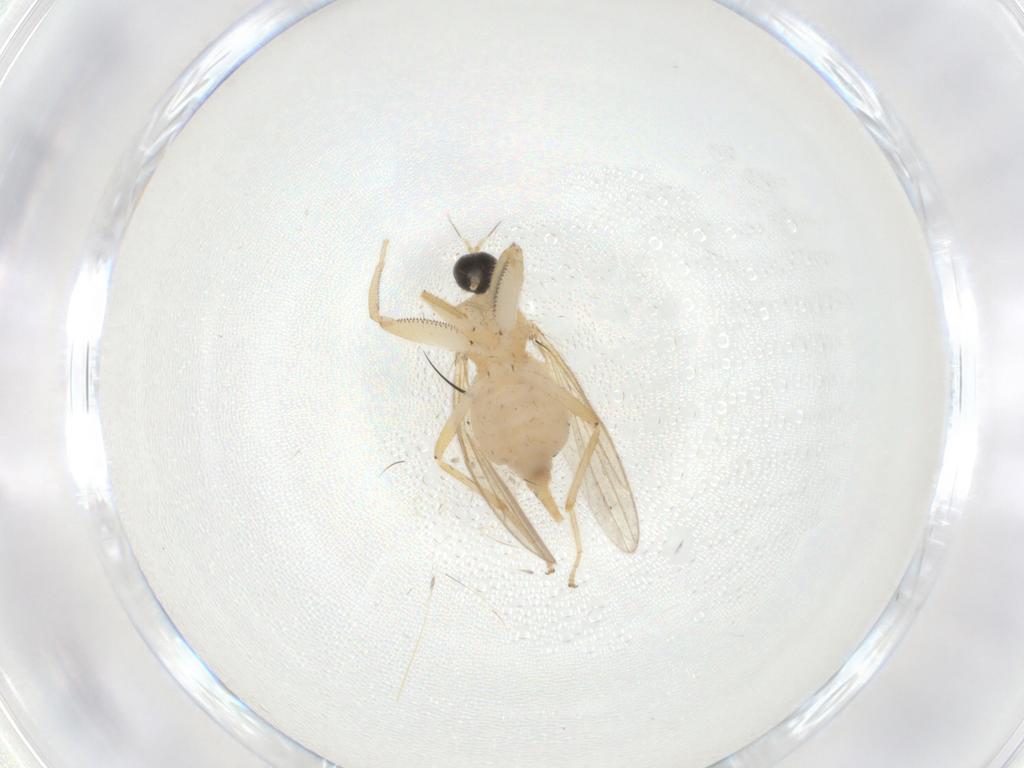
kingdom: Animalia
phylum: Arthropoda
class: Insecta
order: Diptera
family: Cecidomyiidae
